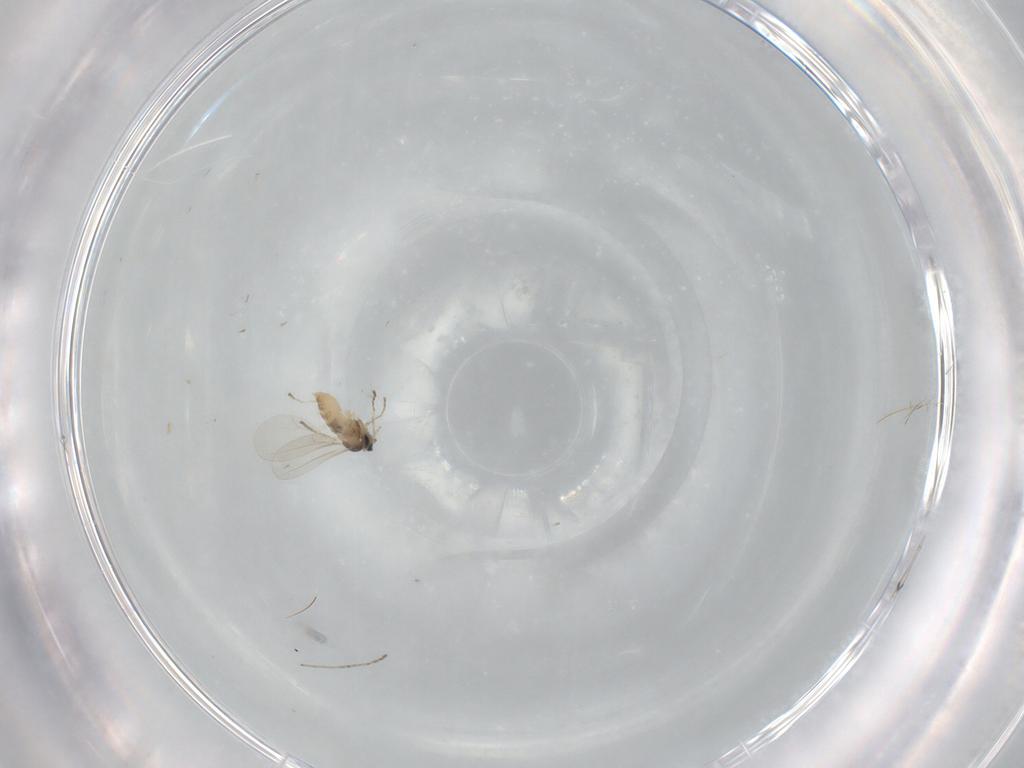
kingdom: Animalia
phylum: Arthropoda
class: Insecta
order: Diptera
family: Cecidomyiidae
